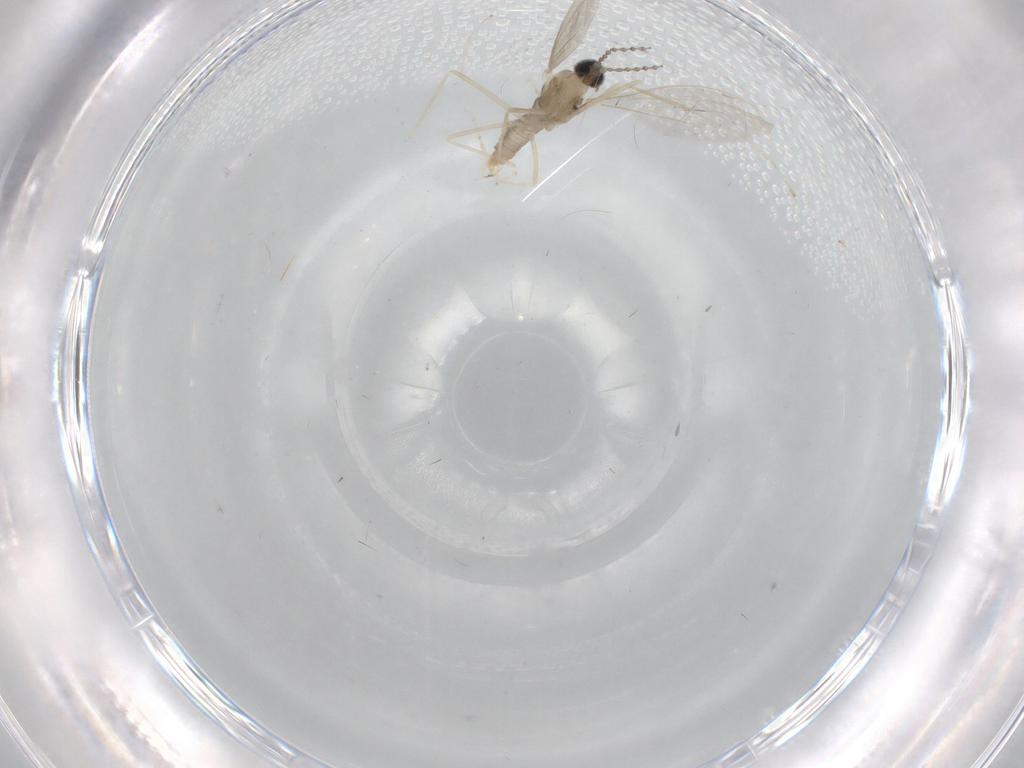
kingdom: Animalia
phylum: Arthropoda
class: Insecta
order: Diptera
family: Cecidomyiidae
